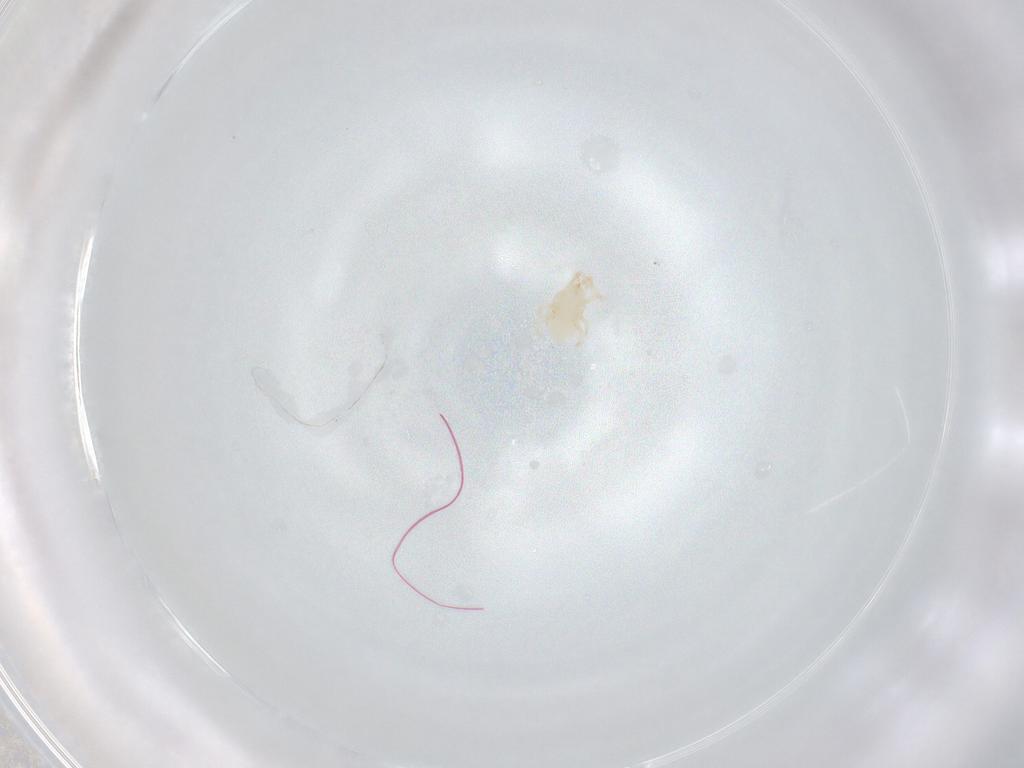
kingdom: Animalia
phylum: Arthropoda
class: Arachnida
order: Mesostigmata
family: Melicharidae
